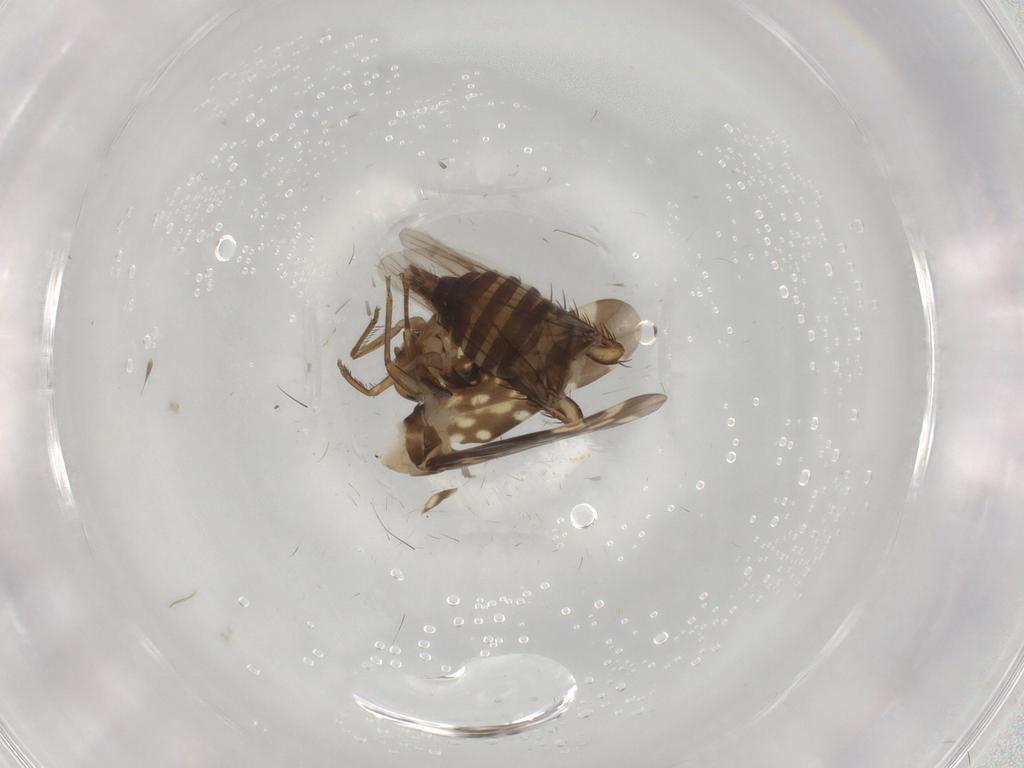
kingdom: Animalia
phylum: Arthropoda
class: Insecta
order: Hemiptera
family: Cicadellidae
